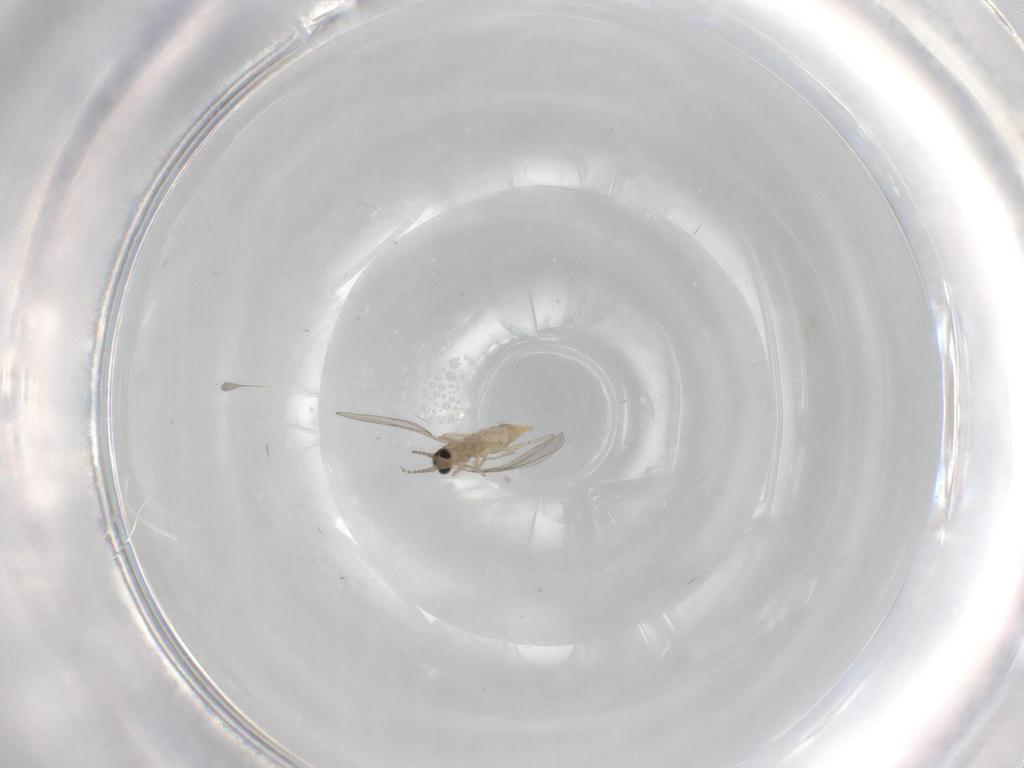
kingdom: Animalia
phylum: Arthropoda
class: Insecta
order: Diptera
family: Cecidomyiidae
